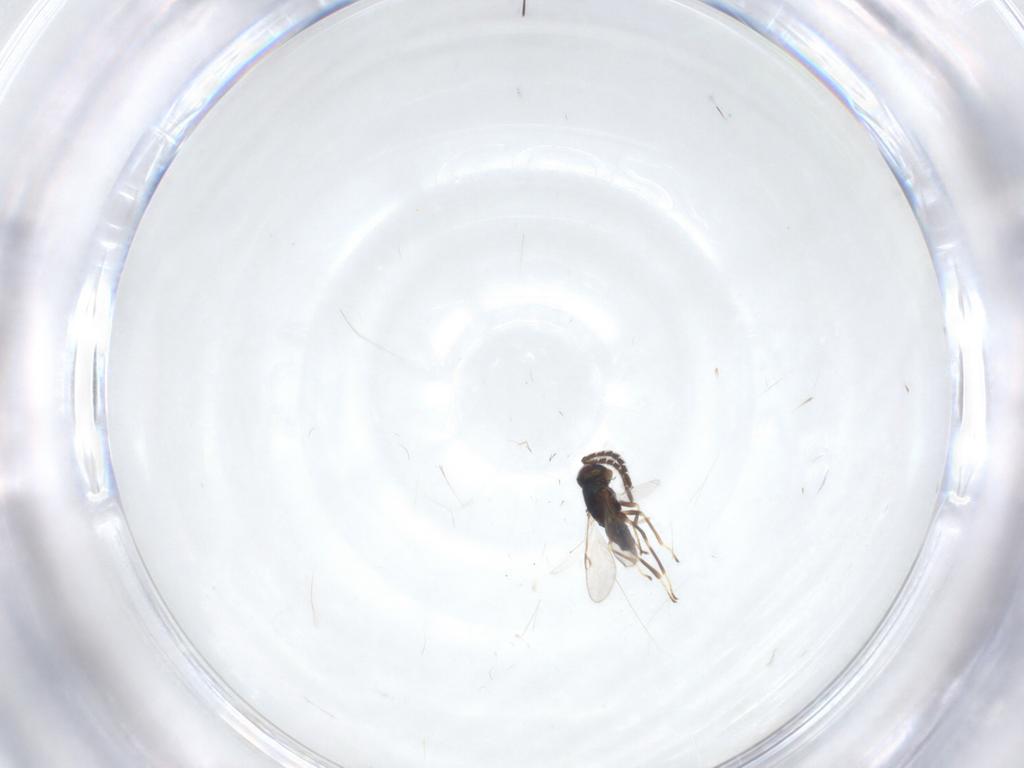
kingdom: Animalia
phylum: Arthropoda
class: Insecta
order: Hymenoptera
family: Encyrtidae
